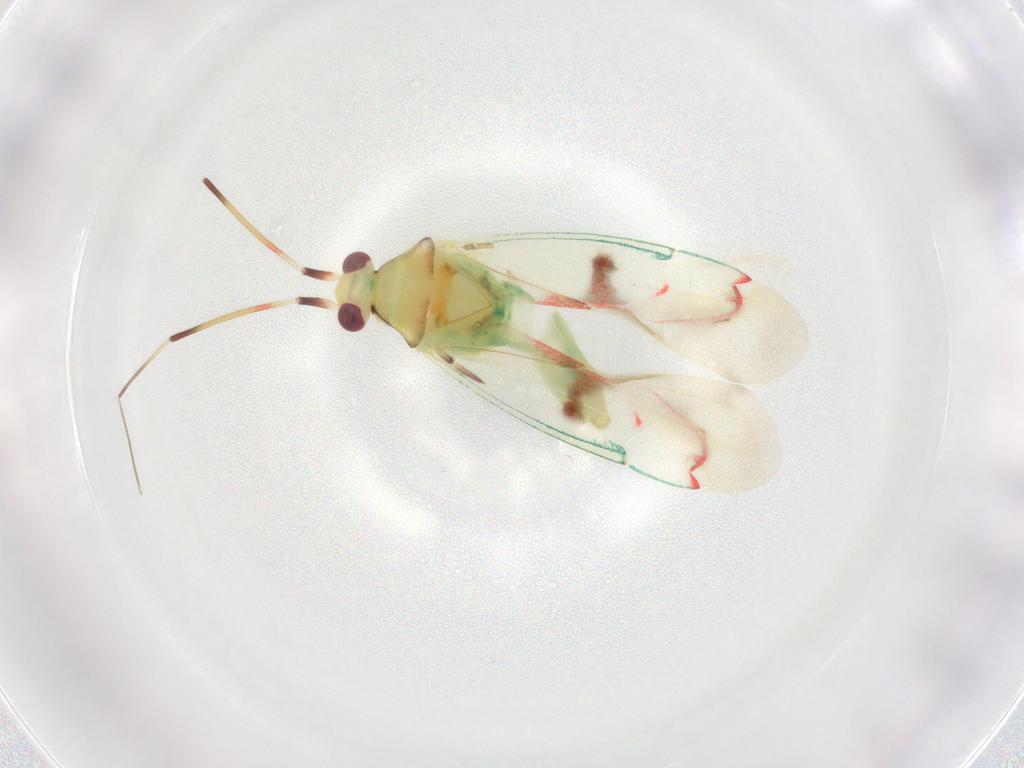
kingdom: Animalia
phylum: Arthropoda
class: Insecta
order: Hemiptera
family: Miridae
